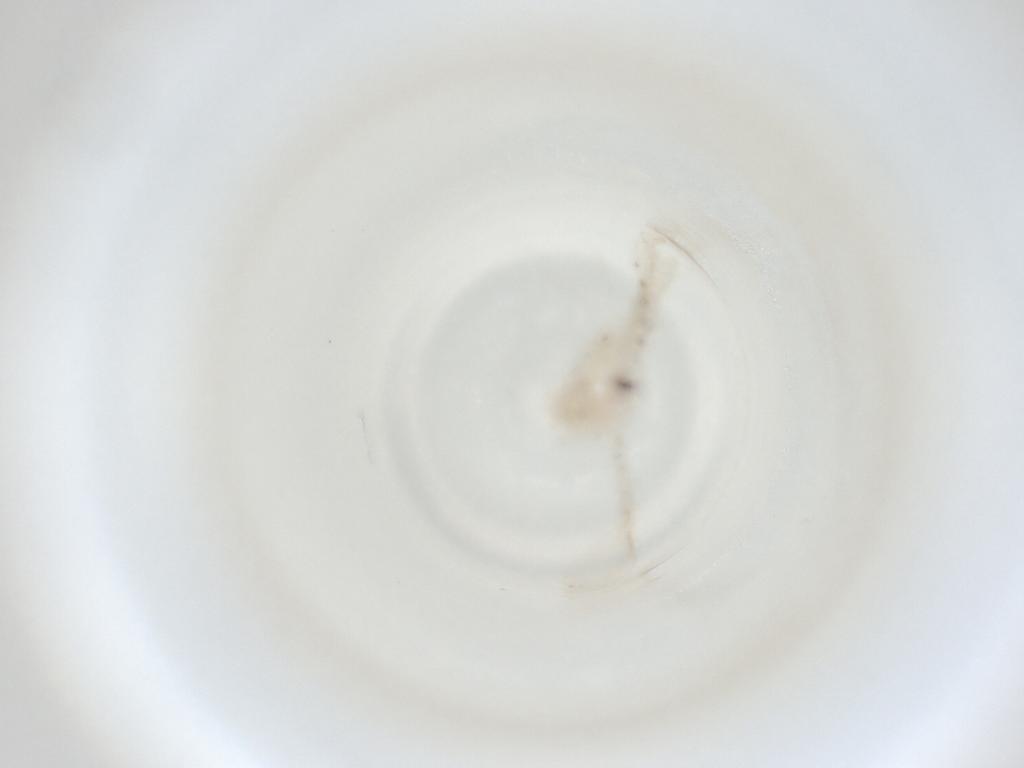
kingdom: Animalia
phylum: Arthropoda
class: Insecta
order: Diptera
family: Cecidomyiidae
